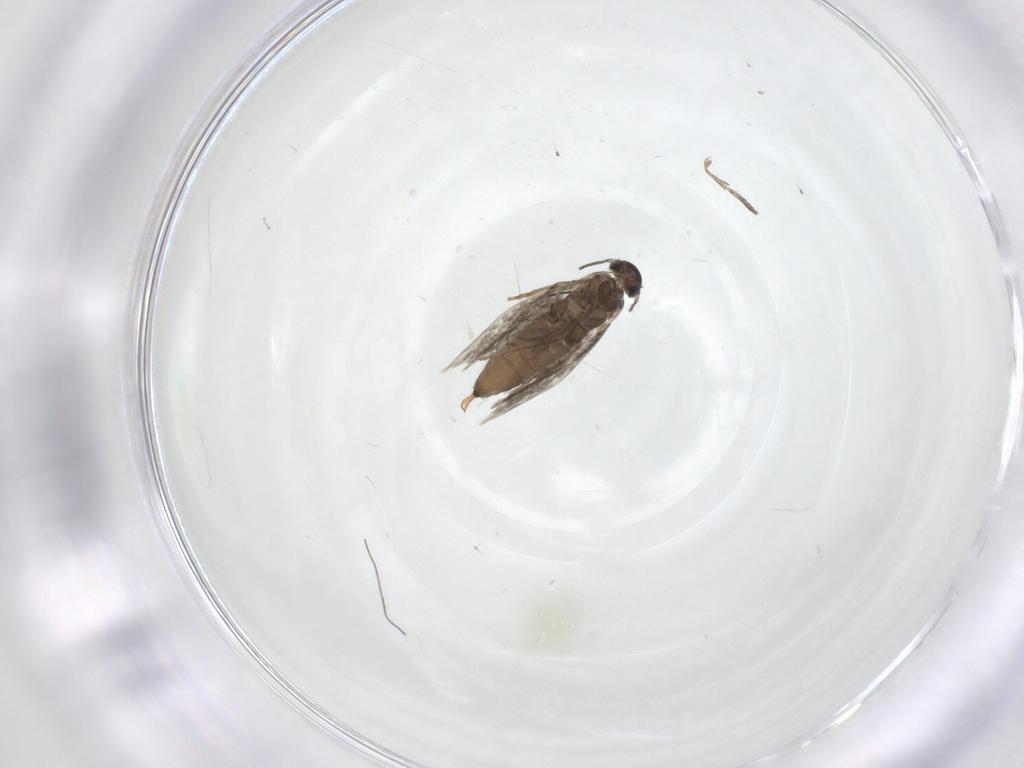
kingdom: Animalia
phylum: Arthropoda
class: Insecta
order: Lepidoptera
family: Heliozelidae
